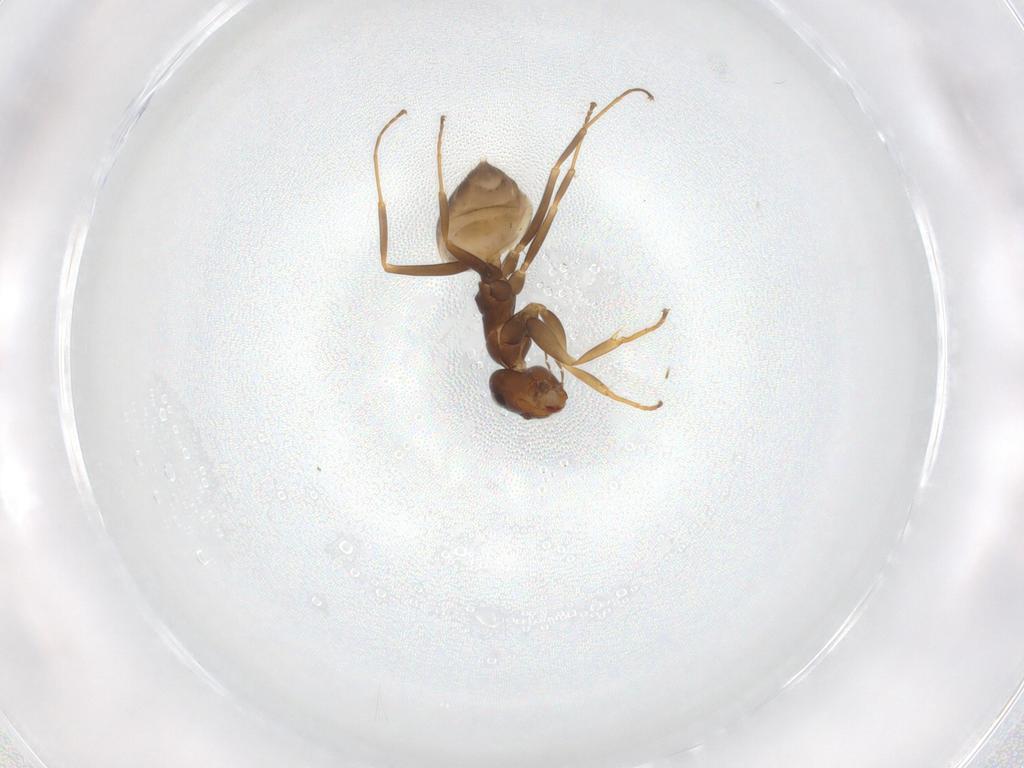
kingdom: Animalia
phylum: Arthropoda
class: Insecta
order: Hymenoptera
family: Formicidae
